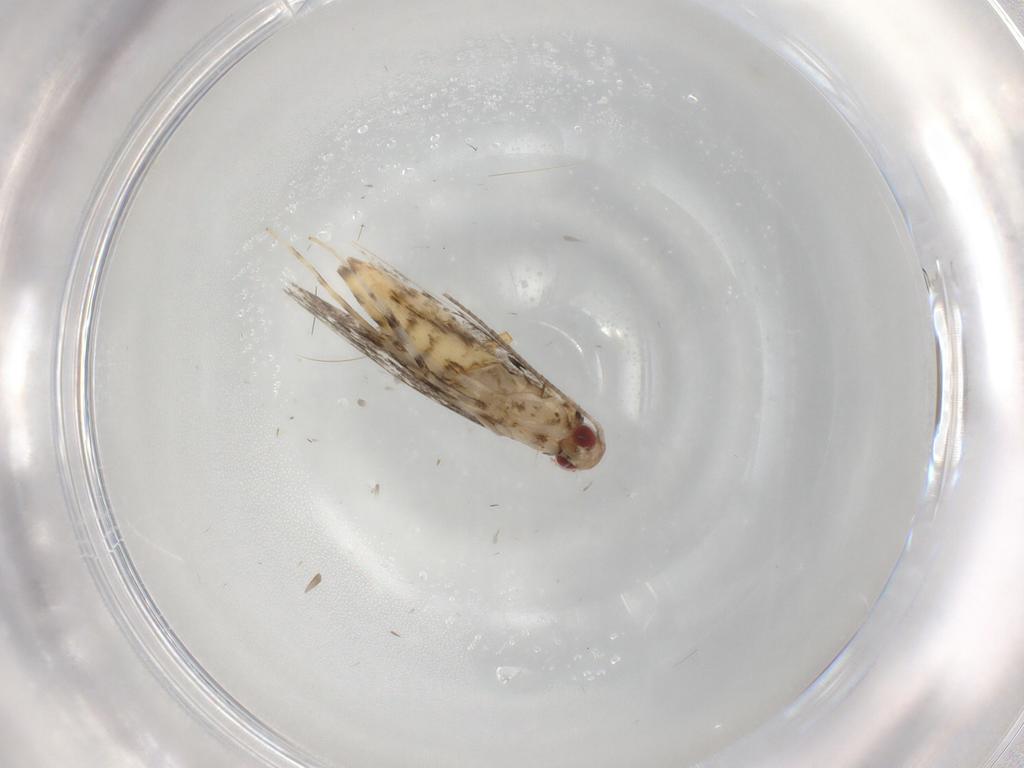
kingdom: Animalia
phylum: Arthropoda
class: Insecta
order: Lepidoptera
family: Gracillariidae
